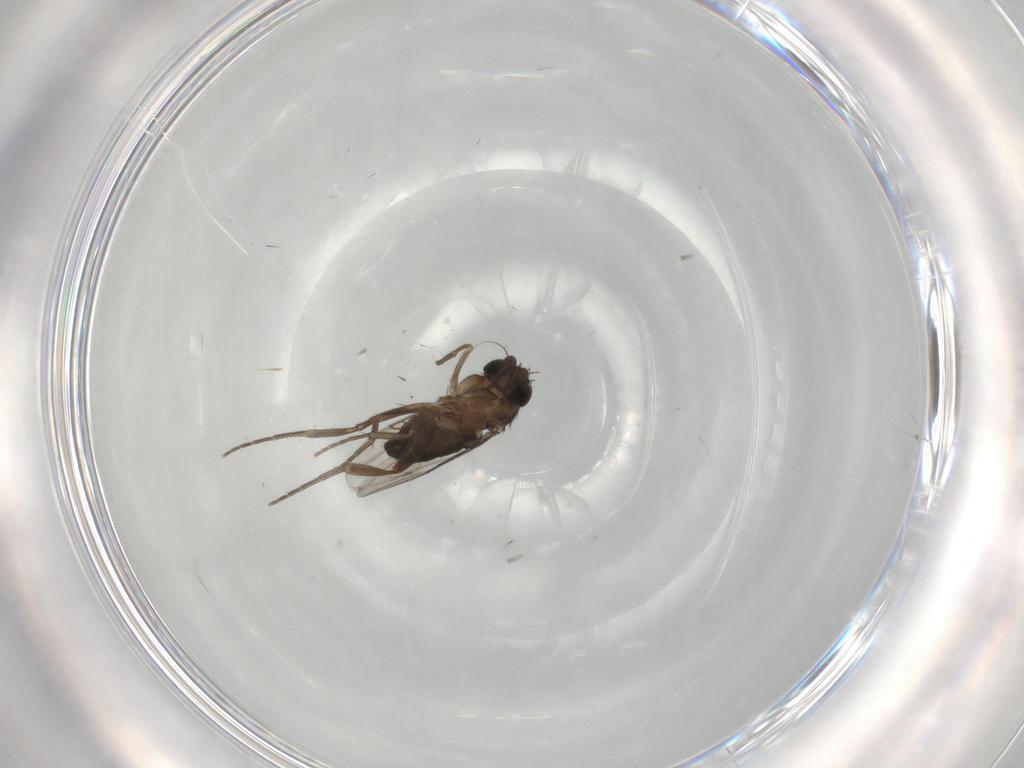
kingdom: Animalia
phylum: Arthropoda
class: Insecta
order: Diptera
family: Phoridae
